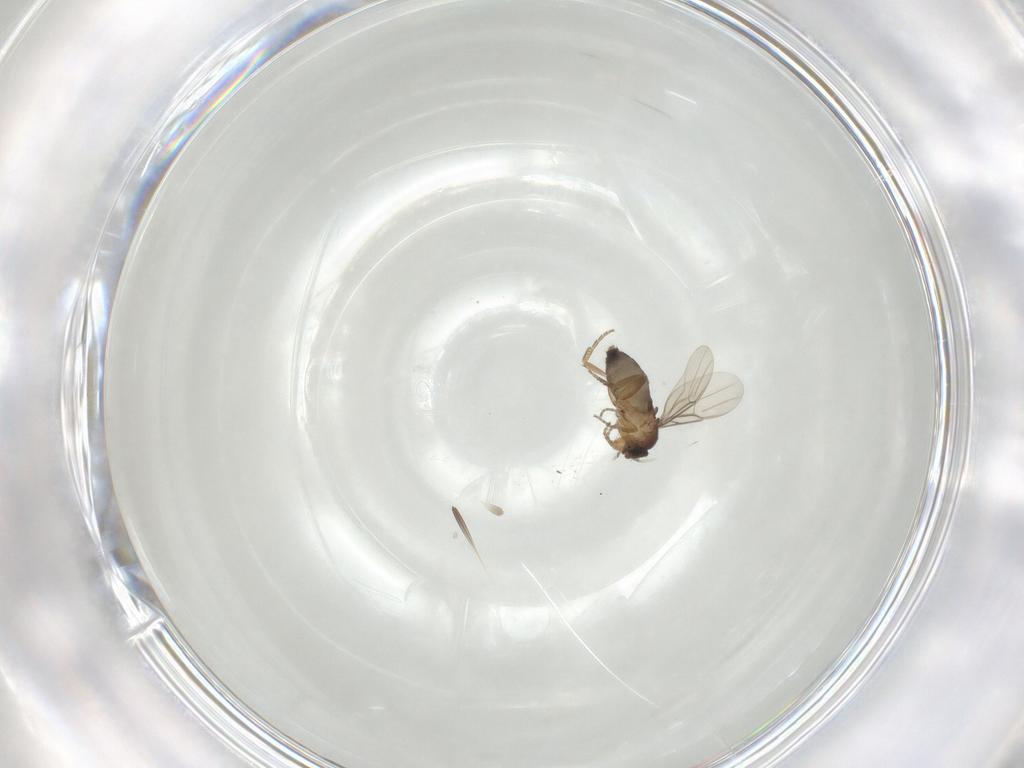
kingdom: Animalia
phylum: Arthropoda
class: Insecta
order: Diptera
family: Phoridae
